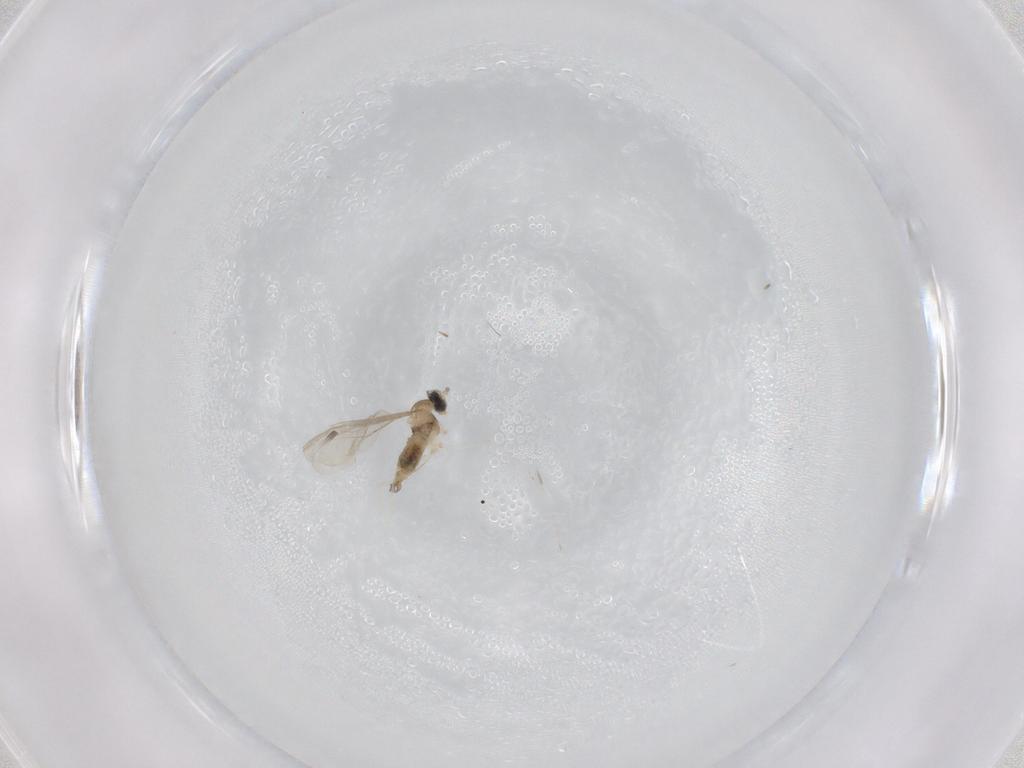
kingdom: Animalia
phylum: Arthropoda
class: Insecta
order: Diptera
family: Cecidomyiidae
